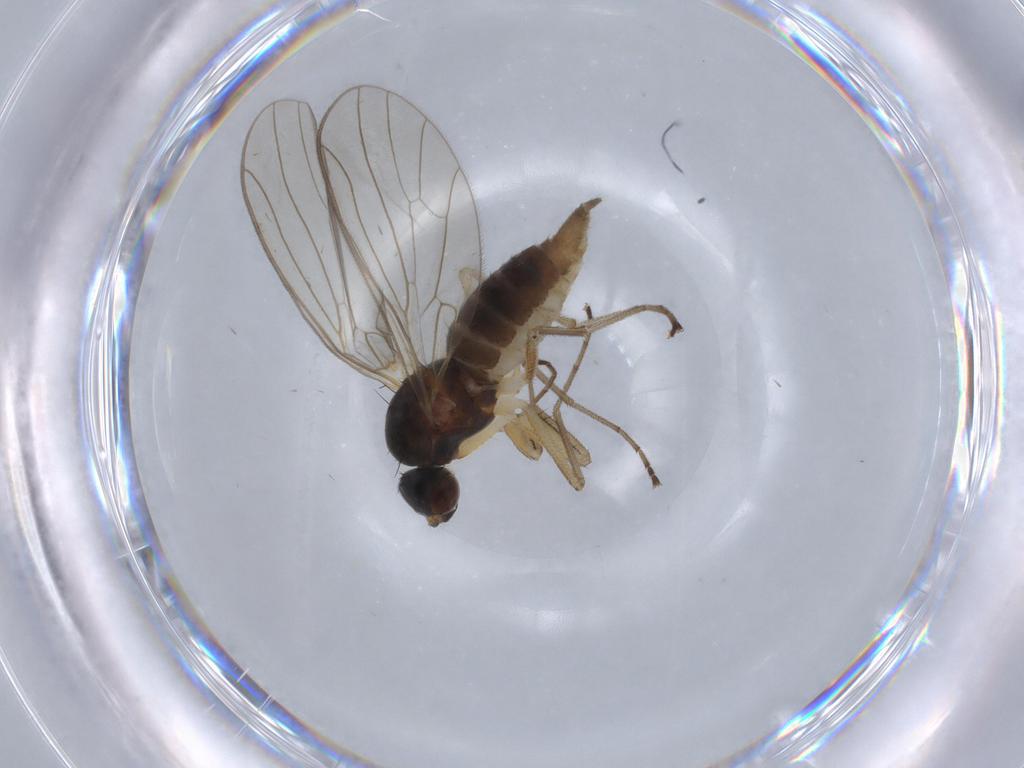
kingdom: Animalia
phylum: Arthropoda
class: Insecta
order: Diptera
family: Empididae
